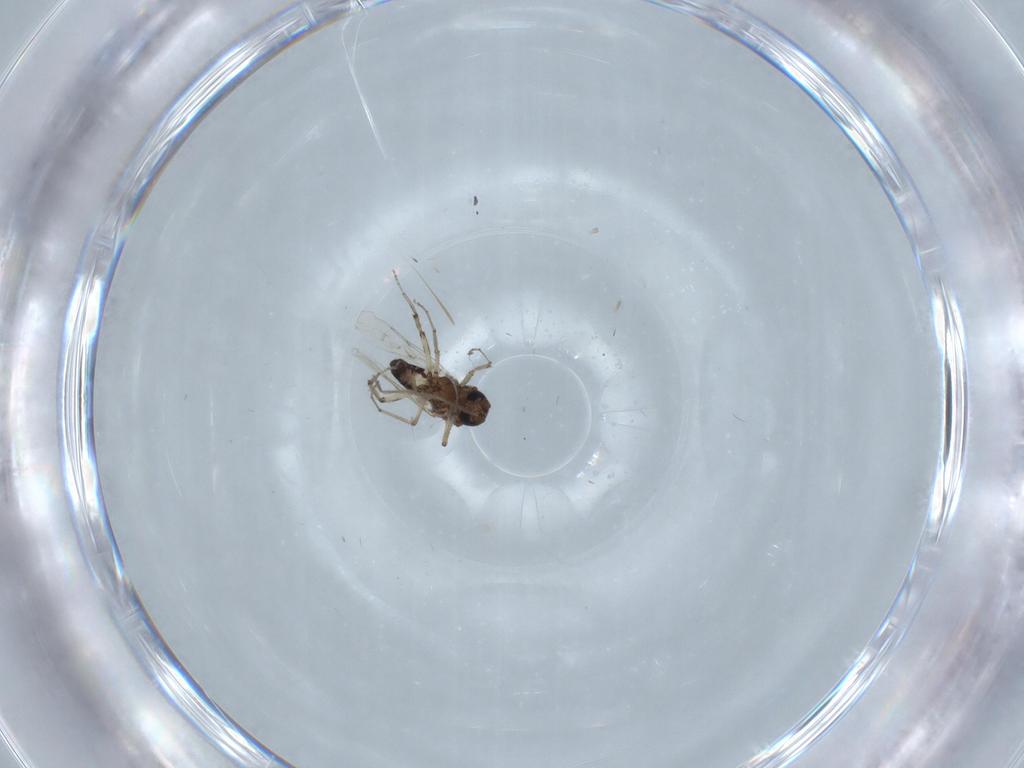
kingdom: Animalia
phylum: Arthropoda
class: Insecta
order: Diptera
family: Ceratopogonidae
